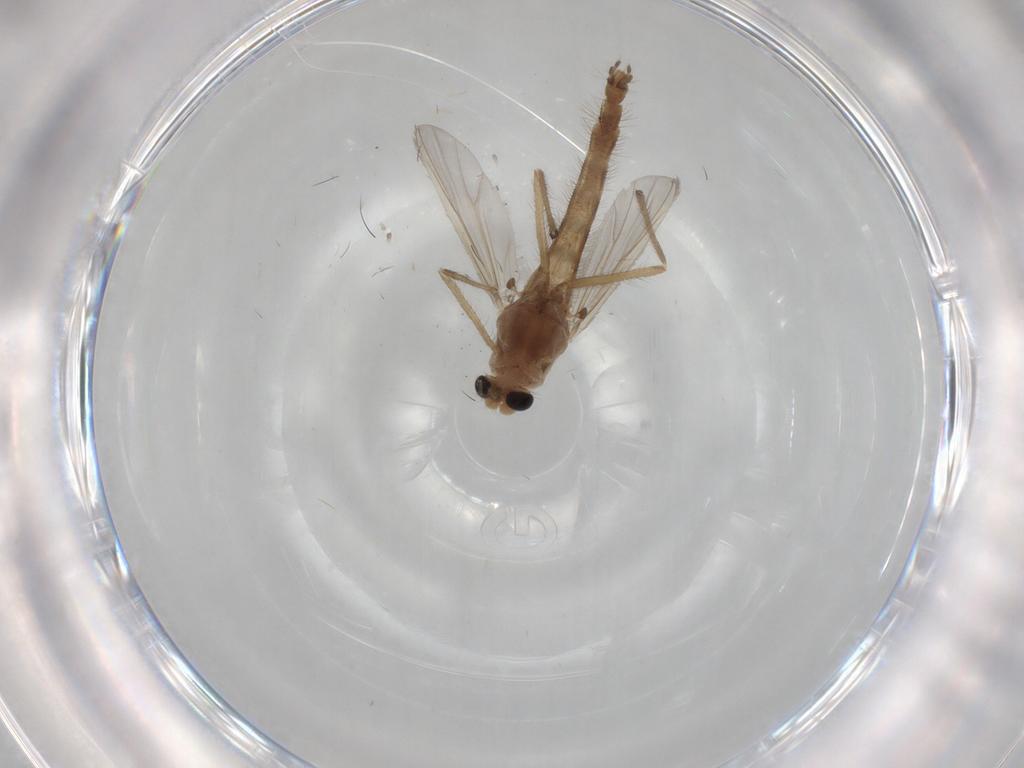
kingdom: Animalia
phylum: Arthropoda
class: Insecta
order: Diptera
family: Chironomidae
